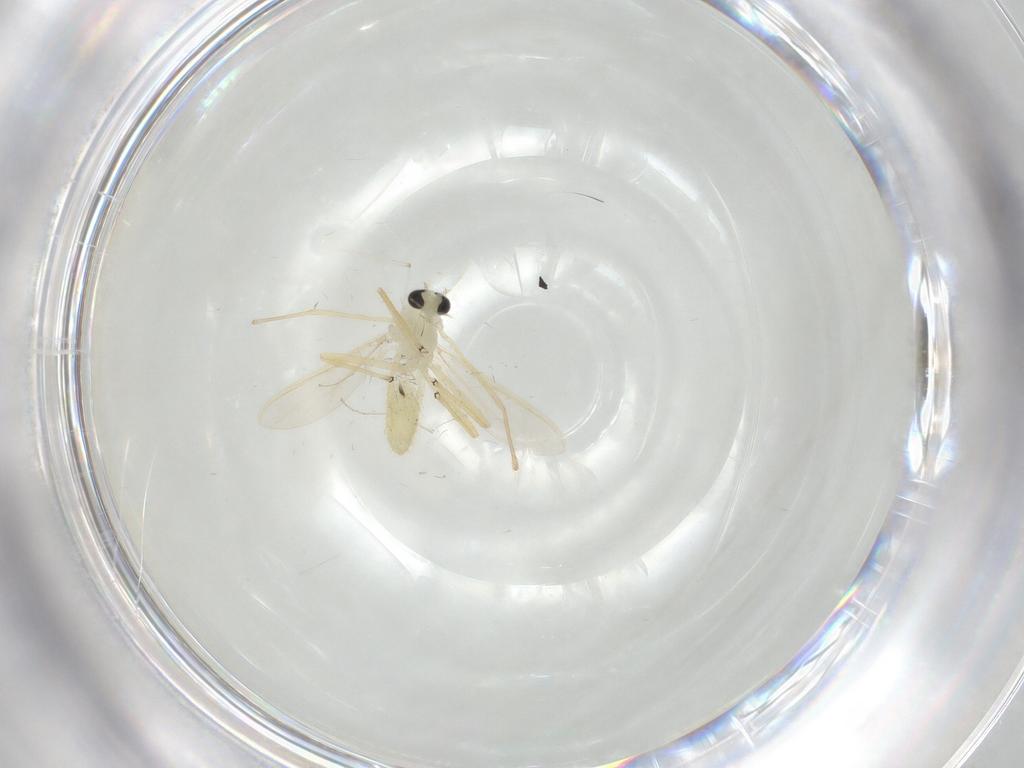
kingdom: Animalia
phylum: Arthropoda
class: Insecta
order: Diptera
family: Chironomidae
